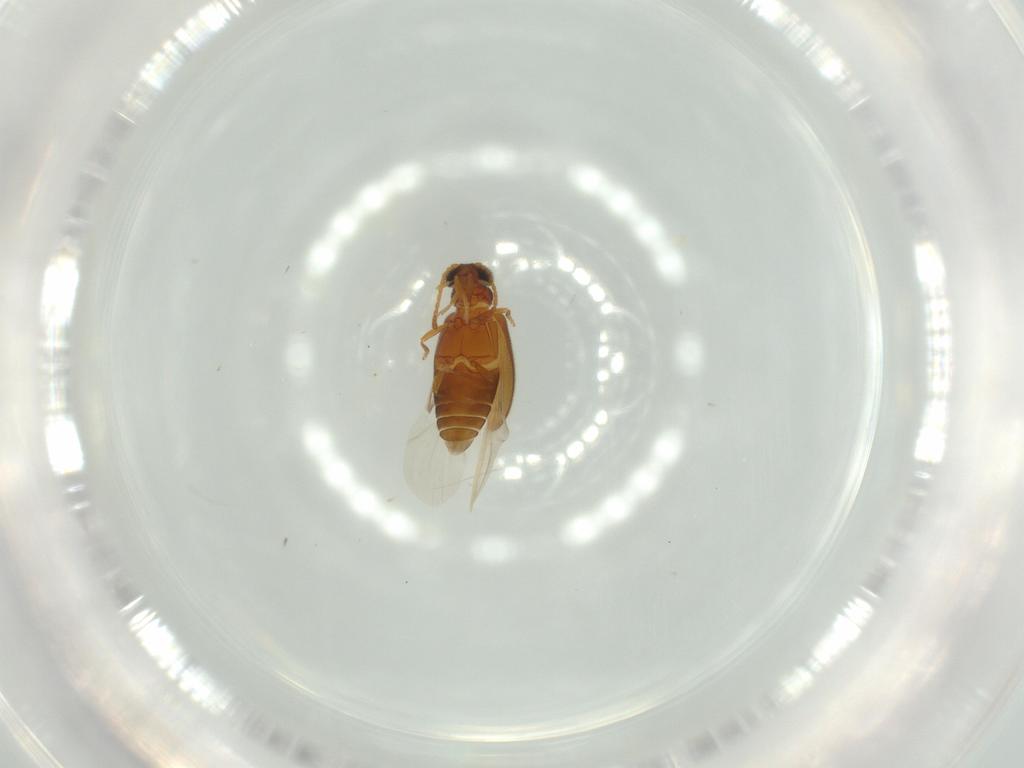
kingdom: Animalia
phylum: Arthropoda
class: Insecta
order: Coleoptera
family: Aderidae
